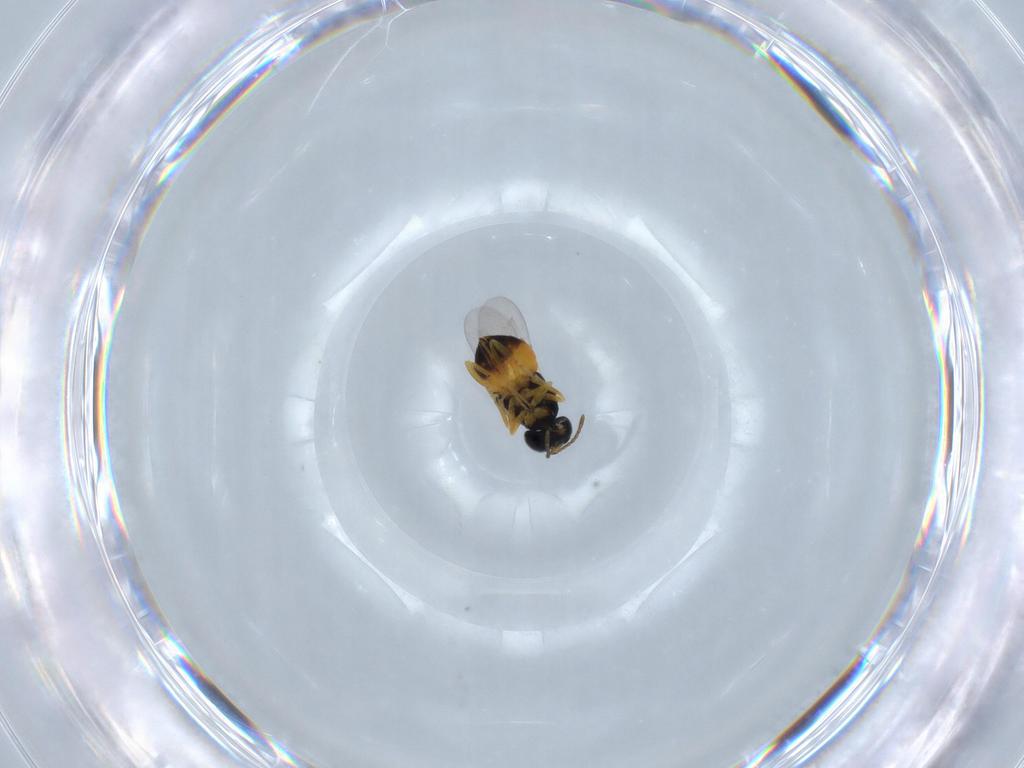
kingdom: Animalia
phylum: Arthropoda
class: Insecta
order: Hymenoptera
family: Encyrtidae
